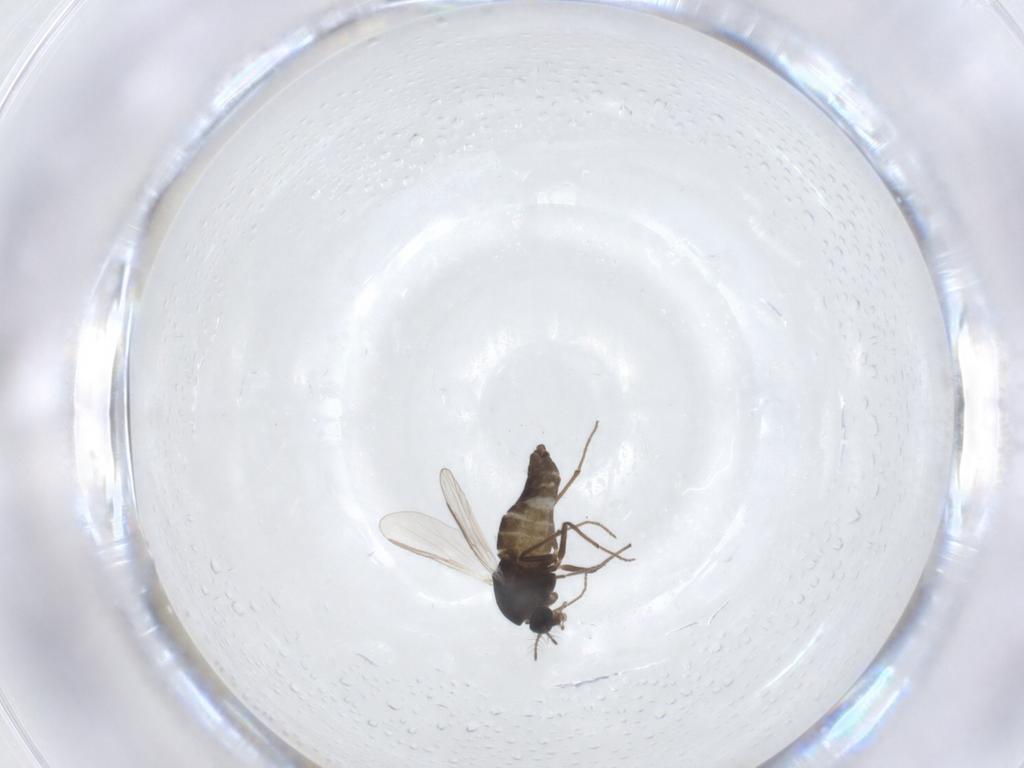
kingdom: Animalia
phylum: Arthropoda
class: Insecta
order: Diptera
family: Chironomidae
